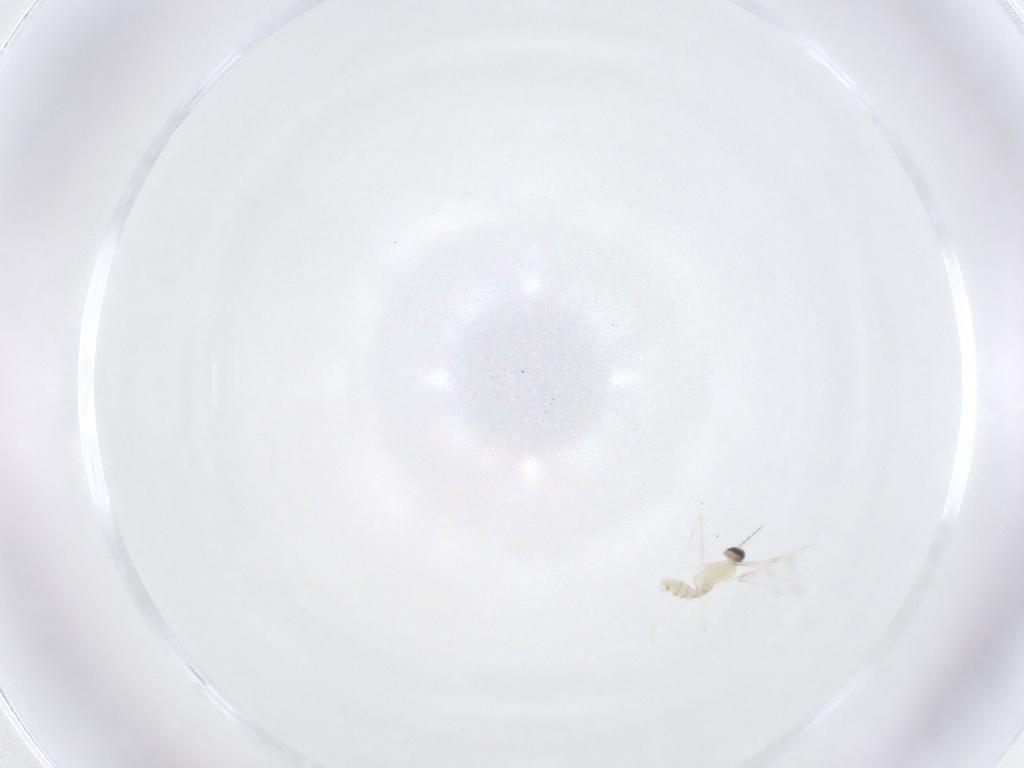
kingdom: Animalia
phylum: Arthropoda
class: Insecta
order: Diptera
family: Cecidomyiidae
